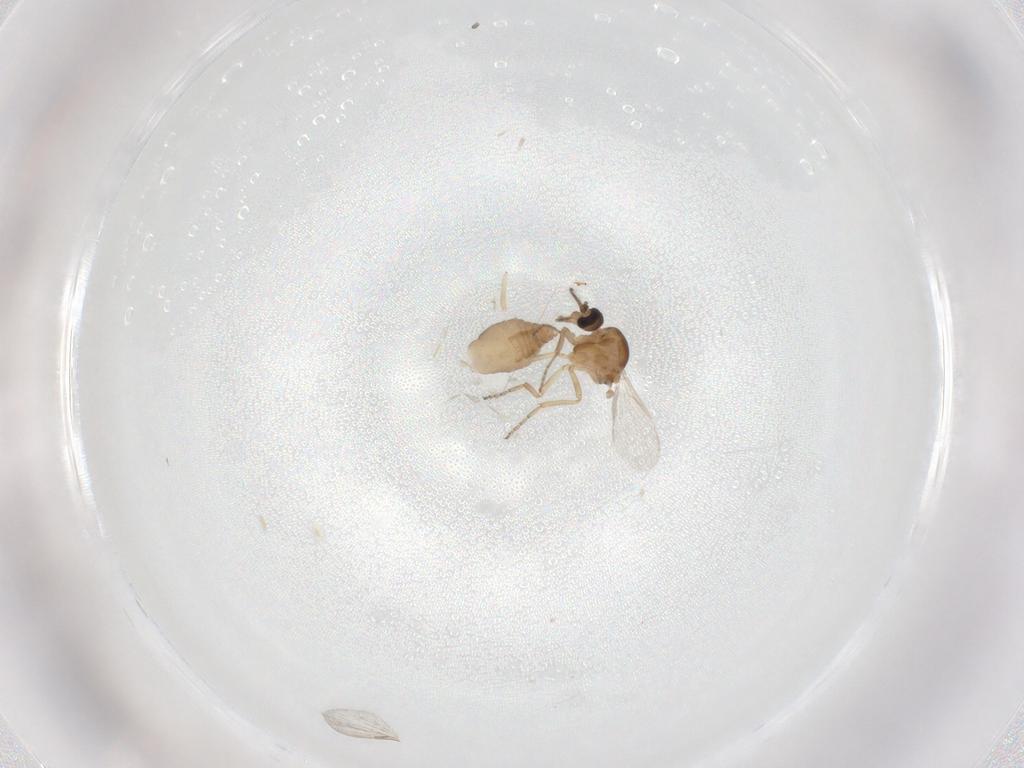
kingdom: Animalia
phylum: Arthropoda
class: Insecta
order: Diptera
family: Ceratopogonidae
